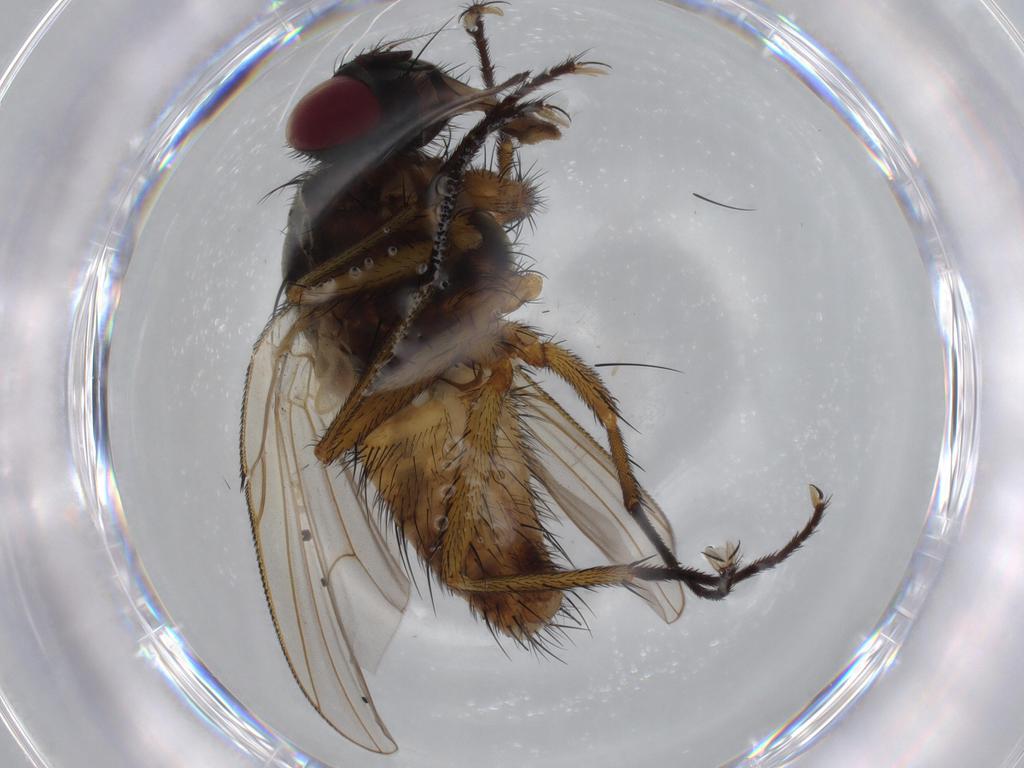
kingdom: Animalia
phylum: Arthropoda
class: Insecta
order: Diptera
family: Muscidae
